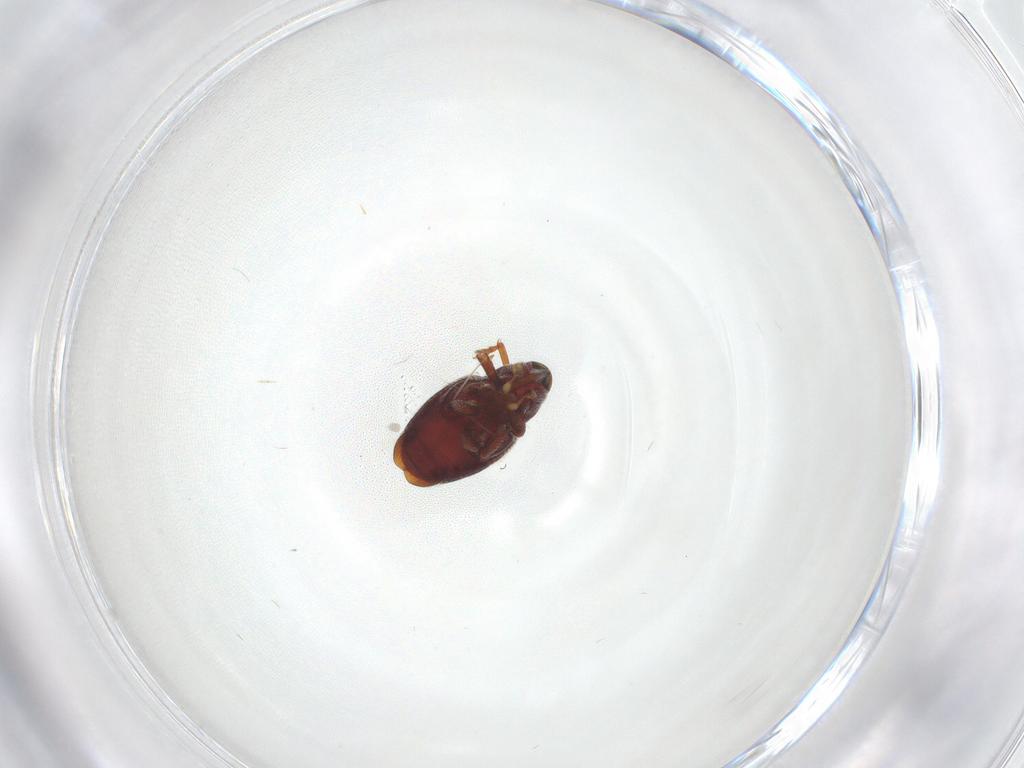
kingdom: Animalia
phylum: Arthropoda
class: Insecta
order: Coleoptera
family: Curculionidae
